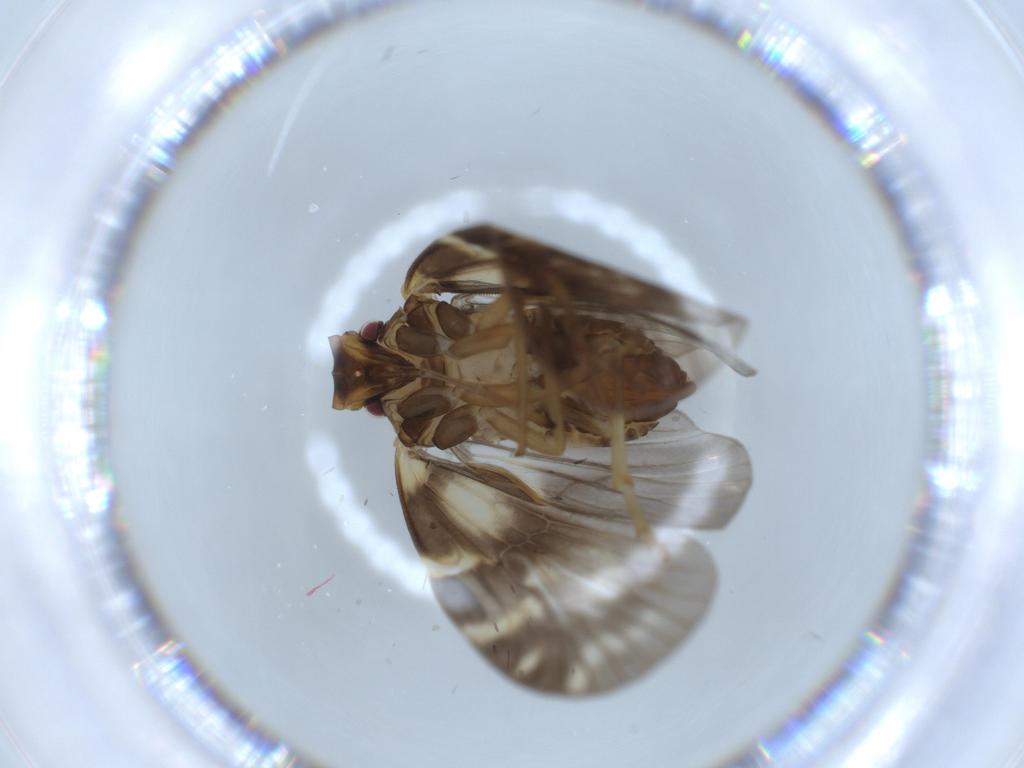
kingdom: Animalia
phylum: Arthropoda
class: Insecta
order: Hemiptera
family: Cixiidae
